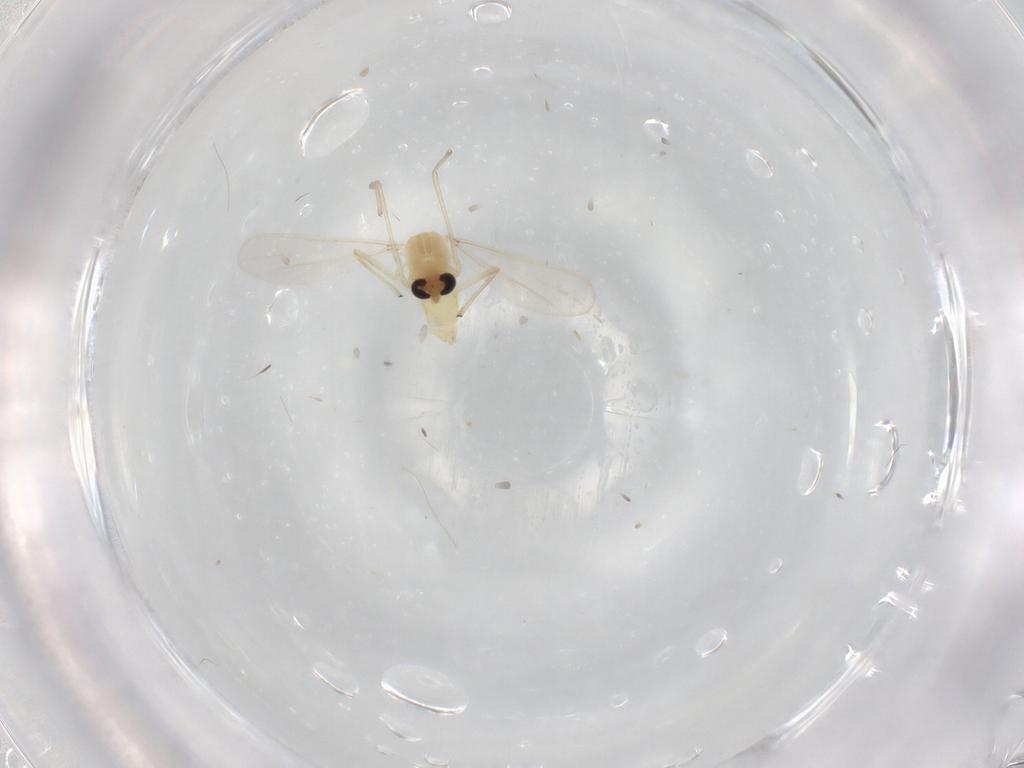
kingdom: Animalia
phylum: Arthropoda
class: Insecta
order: Diptera
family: Chironomidae
